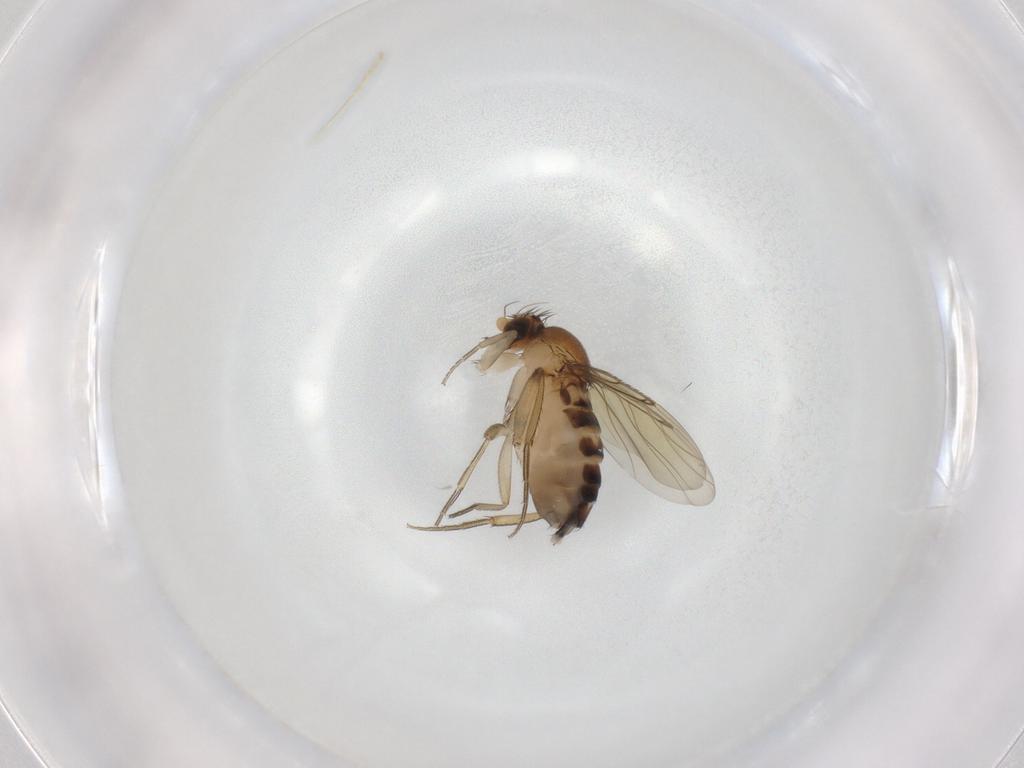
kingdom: Animalia
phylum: Arthropoda
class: Insecta
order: Diptera
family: Phoridae
